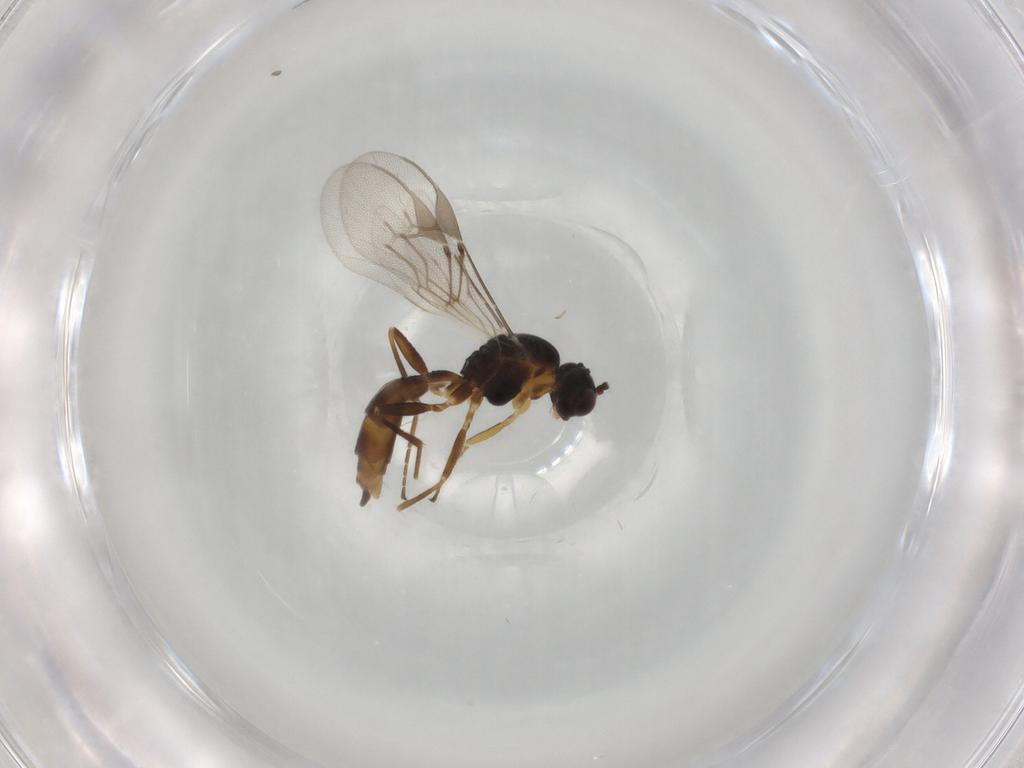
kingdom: Animalia
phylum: Arthropoda
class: Insecta
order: Hymenoptera
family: Braconidae
